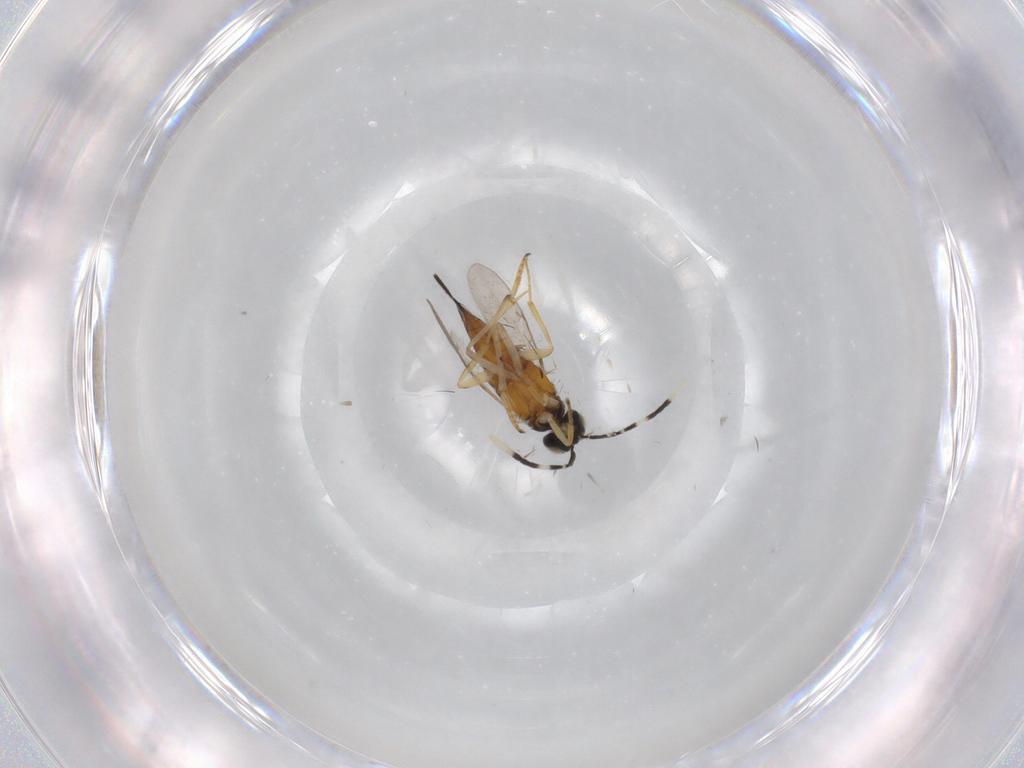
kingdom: Animalia
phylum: Arthropoda
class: Insecta
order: Hymenoptera
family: Encyrtidae
